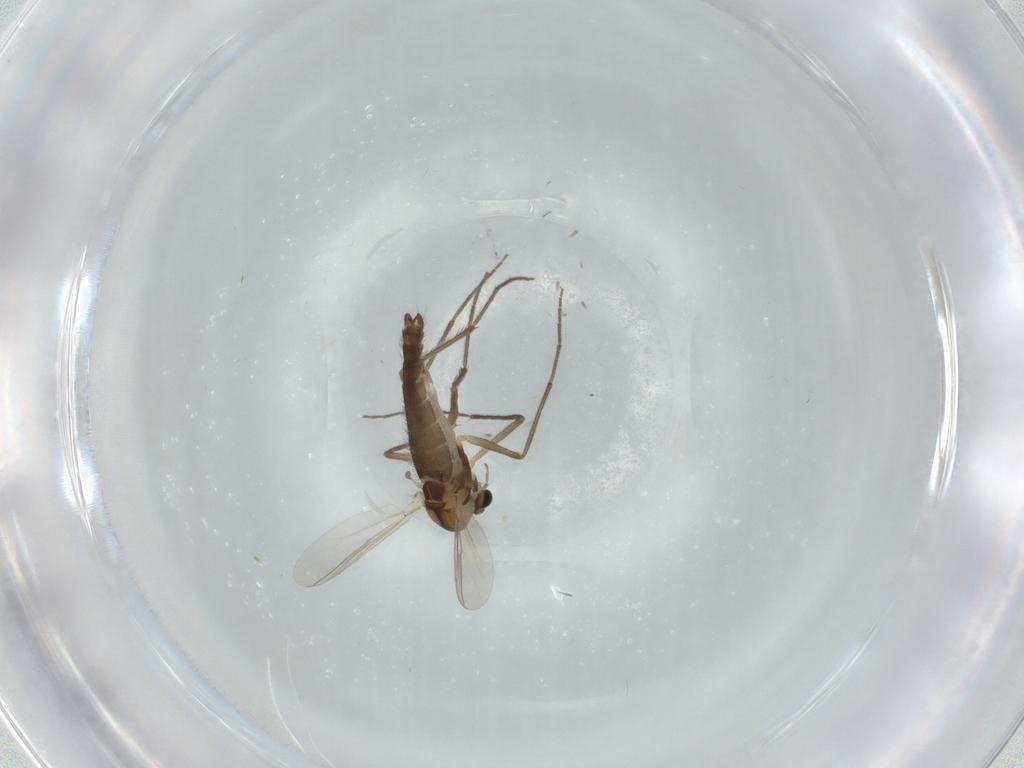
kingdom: Animalia
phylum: Arthropoda
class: Insecta
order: Diptera
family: Chironomidae
